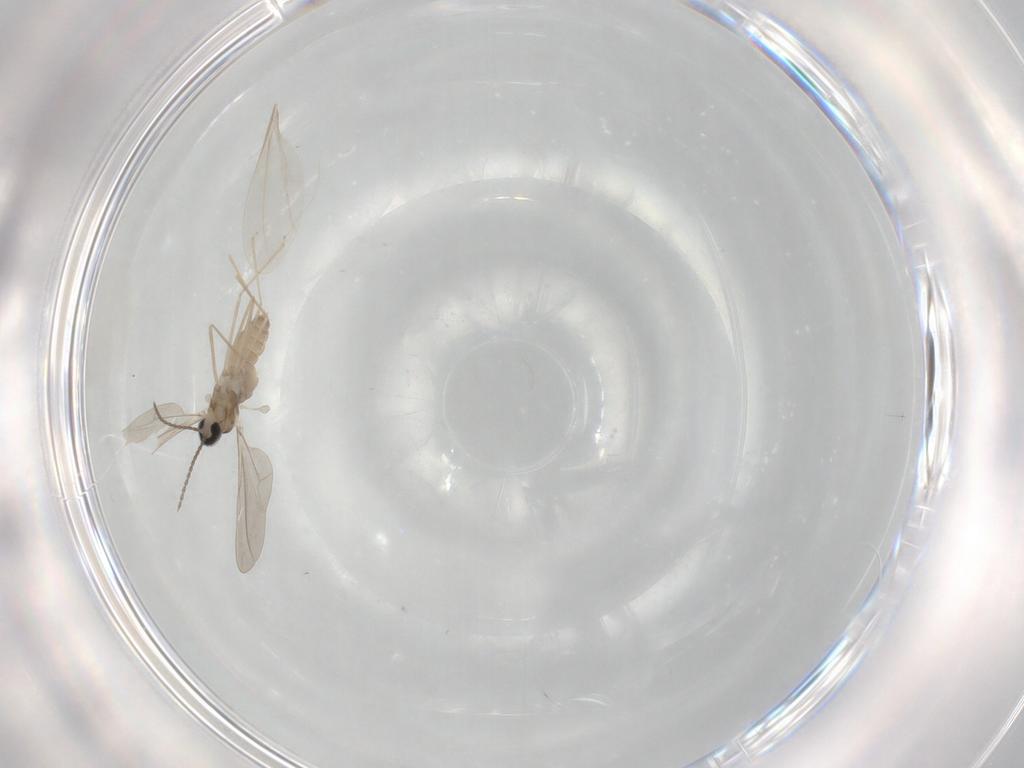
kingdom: Animalia
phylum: Arthropoda
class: Insecta
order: Diptera
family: Cecidomyiidae
